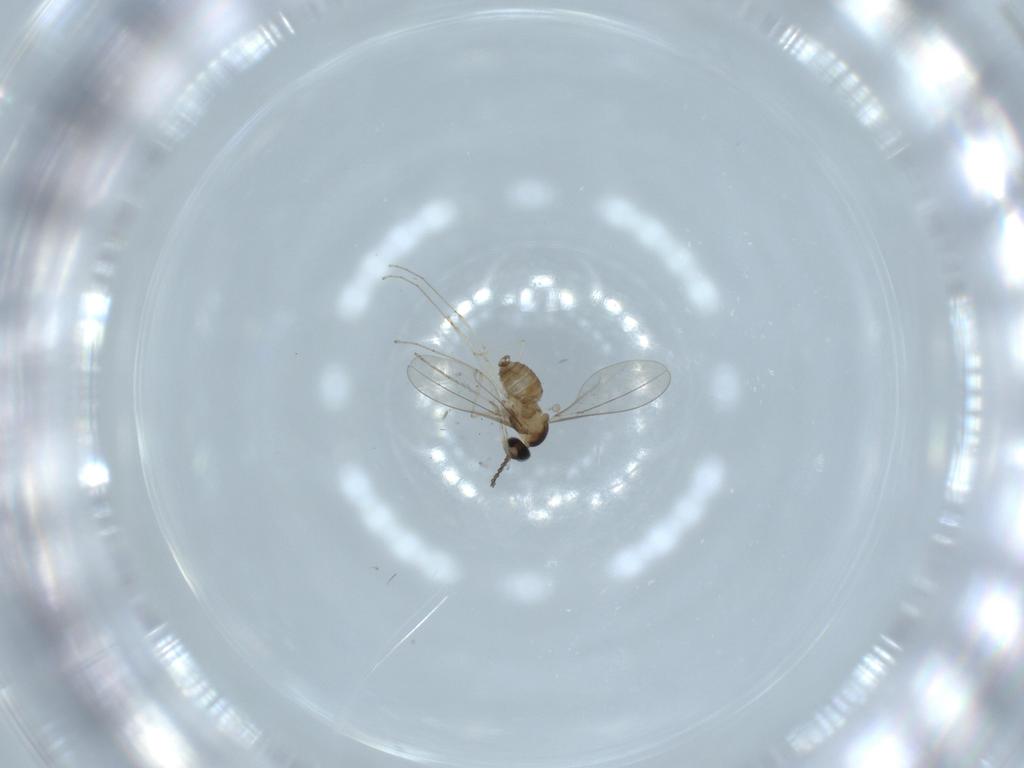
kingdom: Animalia
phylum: Arthropoda
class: Insecta
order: Diptera
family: Cecidomyiidae
